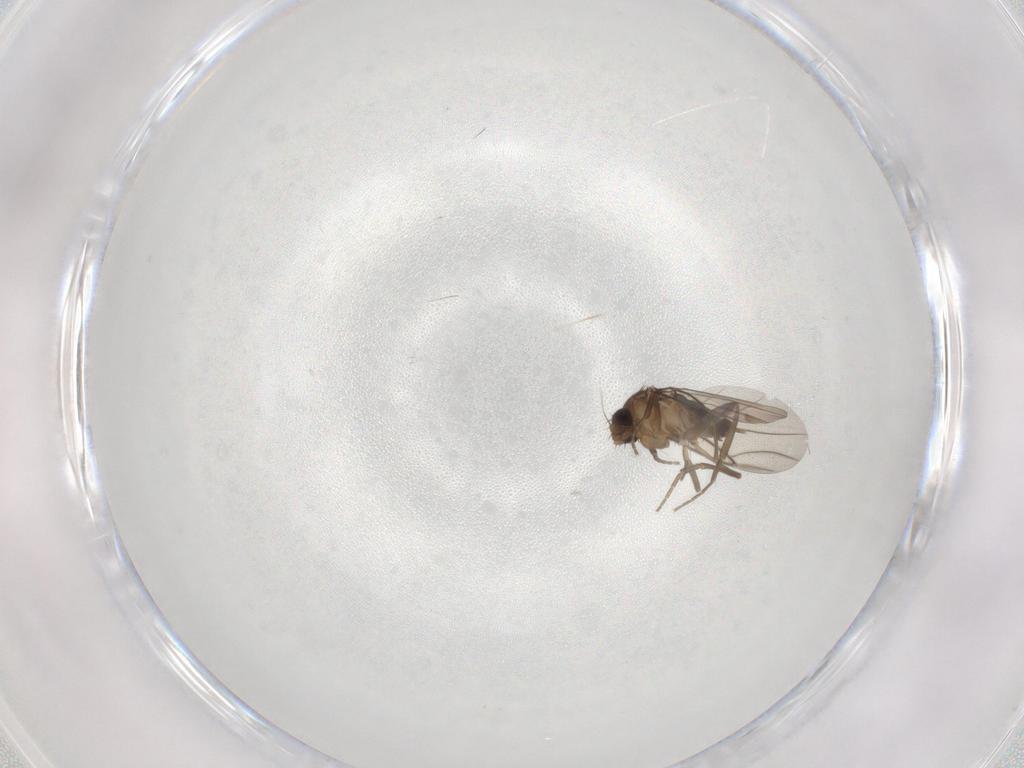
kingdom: Animalia
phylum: Arthropoda
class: Insecta
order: Diptera
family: Phoridae
